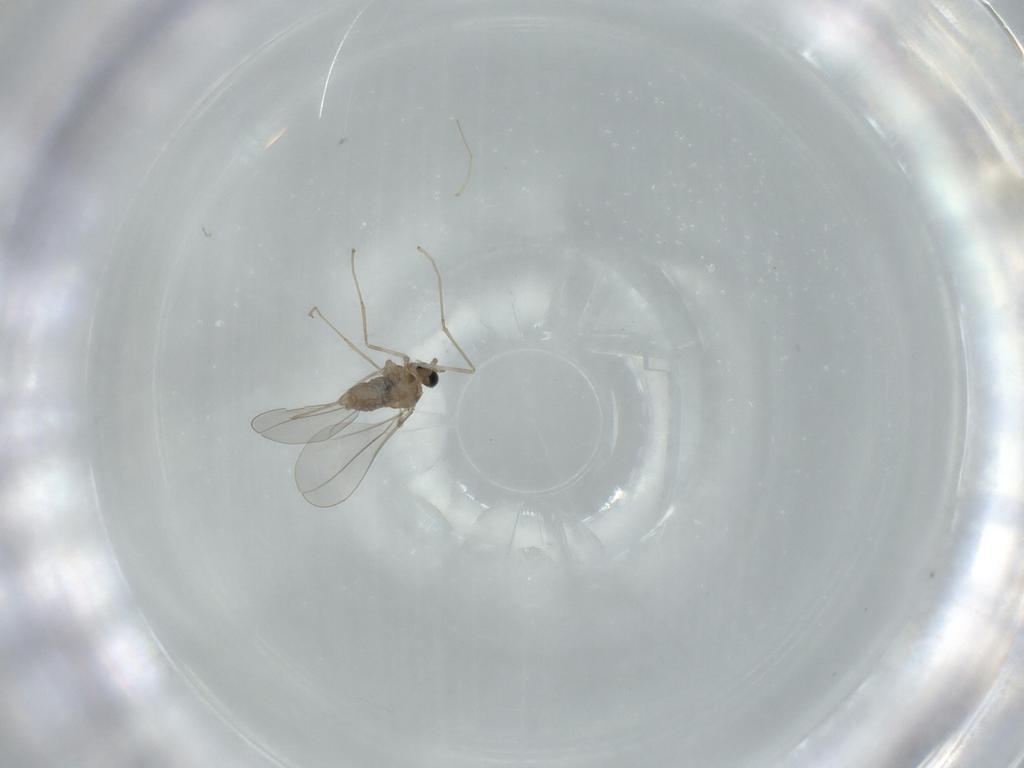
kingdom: Animalia
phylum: Arthropoda
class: Insecta
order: Diptera
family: Cecidomyiidae
